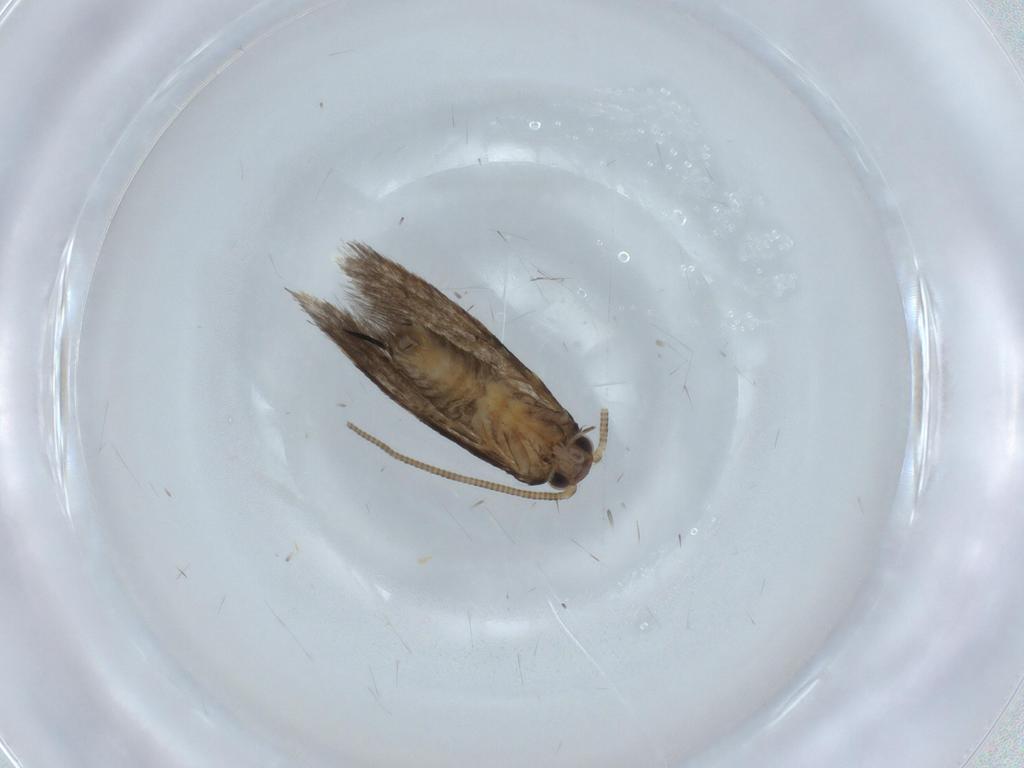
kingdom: Animalia
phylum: Arthropoda
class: Insecta
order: Lepidoptera
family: Tineidae
